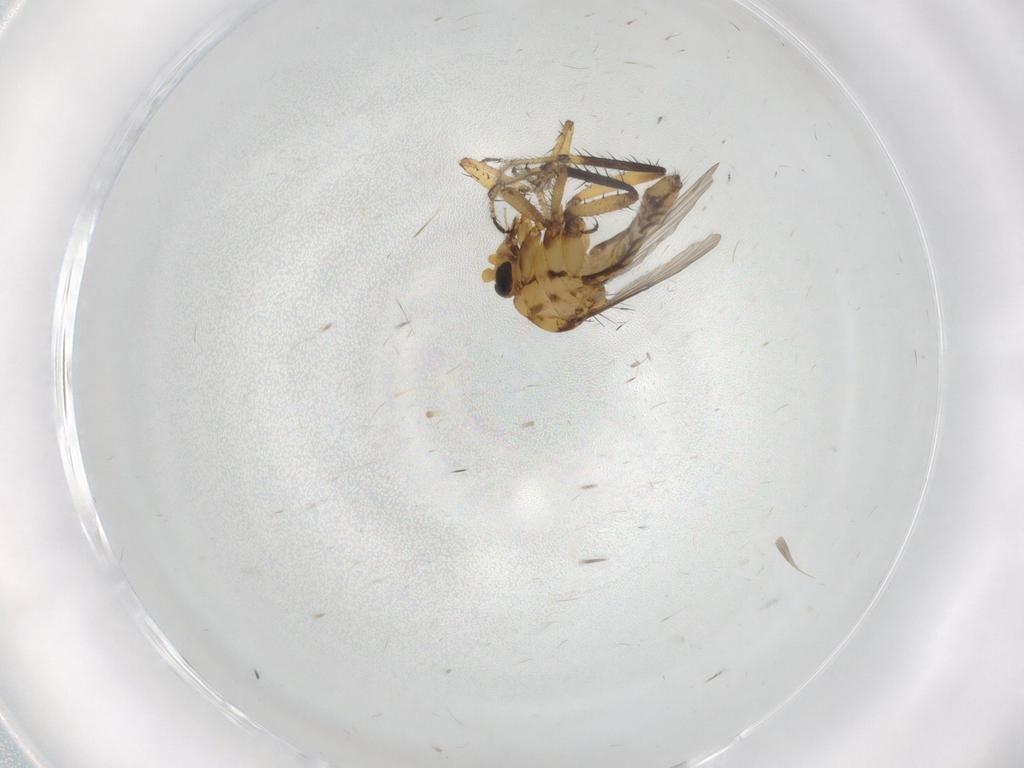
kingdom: Animalia
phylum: Arthropoda
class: Insecta
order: Diptera
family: Ceratopogonidae
